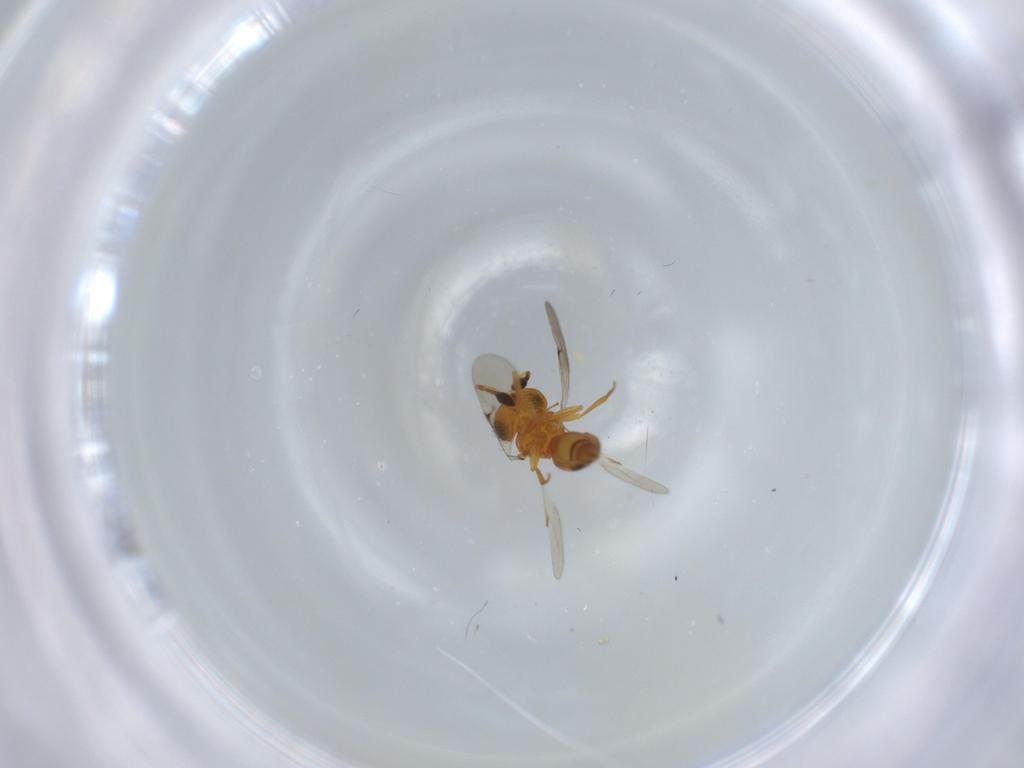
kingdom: Animalia
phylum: Arthropoda
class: Insecta
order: Hymenoptera
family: Scelionidae
